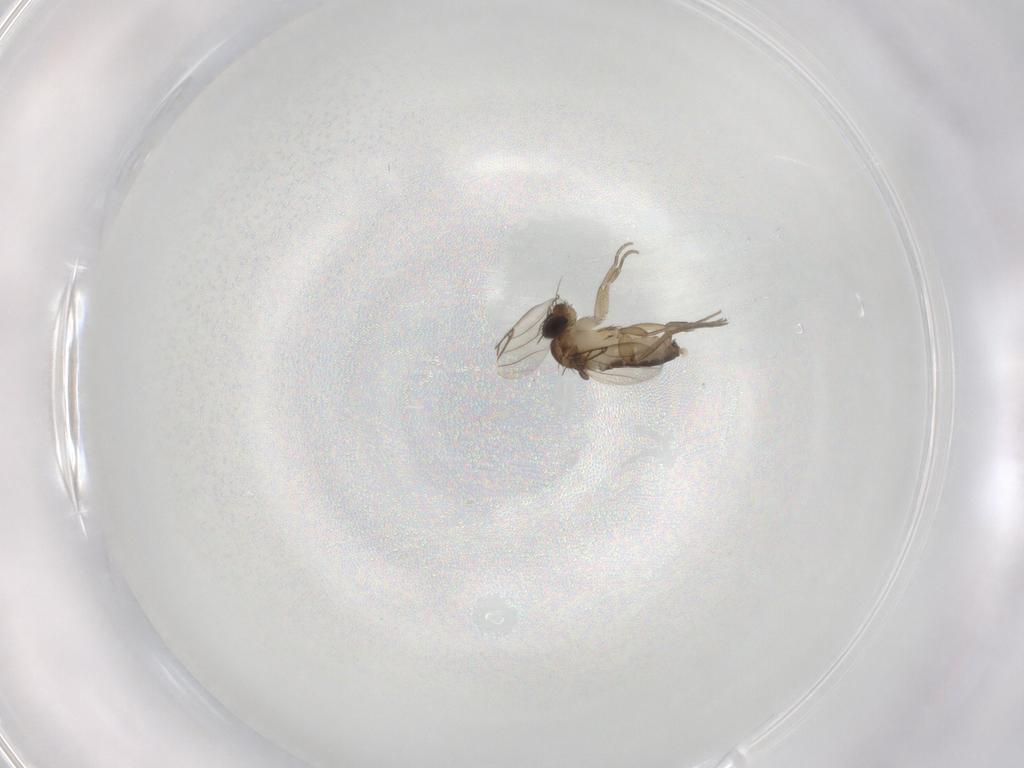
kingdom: Animalia
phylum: Arthropoda
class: Insecta
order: Diptera
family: Phoridae
